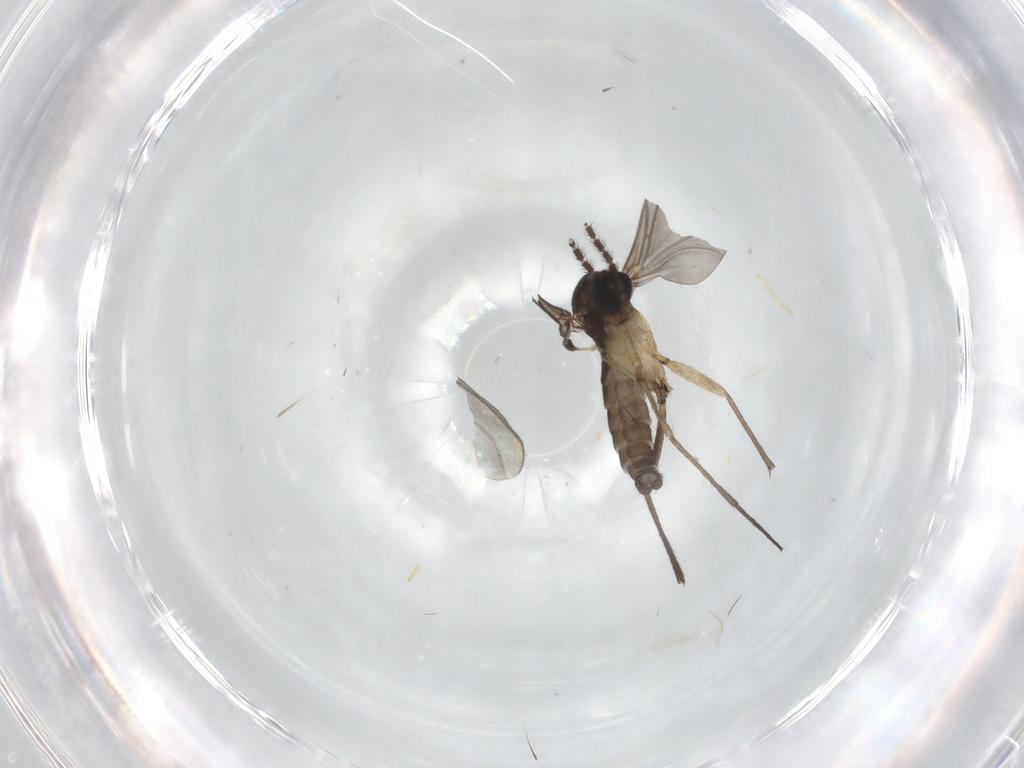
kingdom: Animalia
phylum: Arthropoda
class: Insecta
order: Diptera
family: Sciaridae
